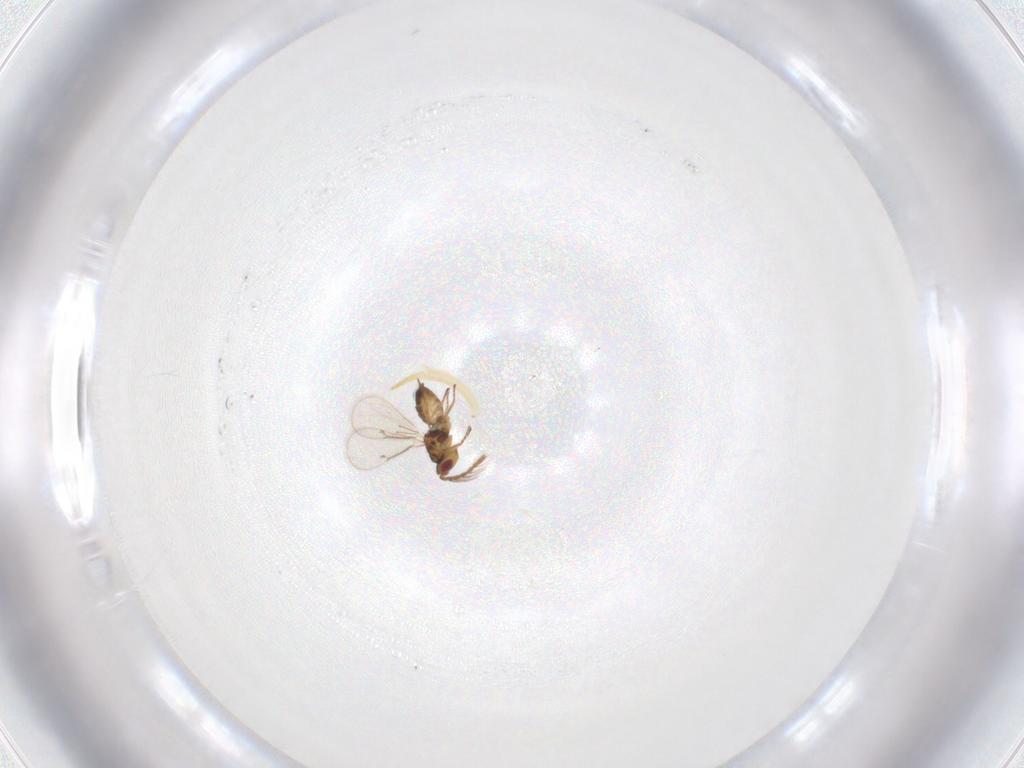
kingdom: Animalia
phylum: Arthropoda
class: Insecta
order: Hymenoptera
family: Eulophidae
